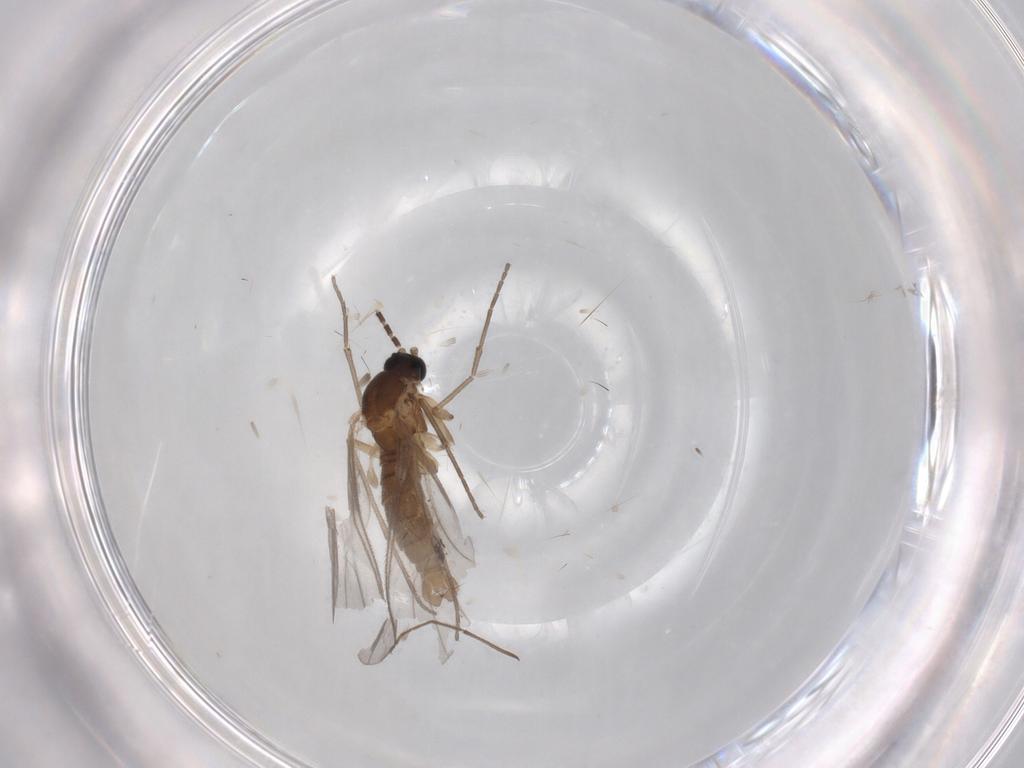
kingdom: Animalia
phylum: Arthropoda
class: Insecta
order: Diptera
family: Sciaridae
